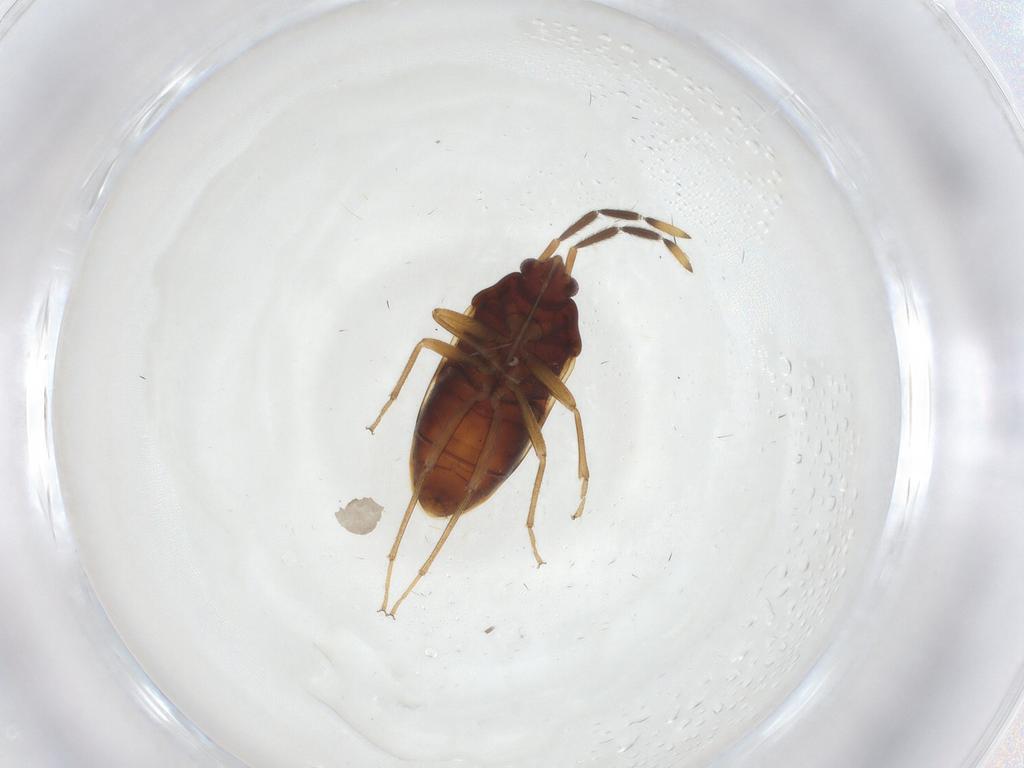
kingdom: Animalia
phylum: Arthropoda
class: Insecta
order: Hemiptera
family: Rhyparochromidae
